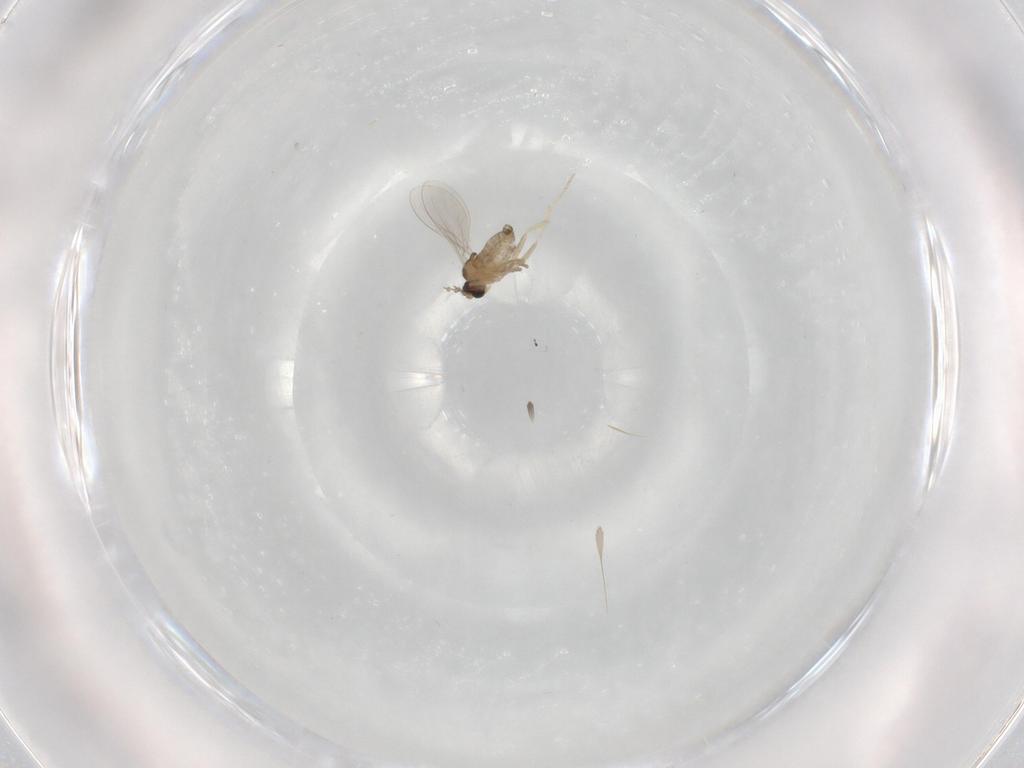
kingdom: Animalia
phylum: Arthropoda
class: Insecta
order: Diptera
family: Cecidomyiidae
